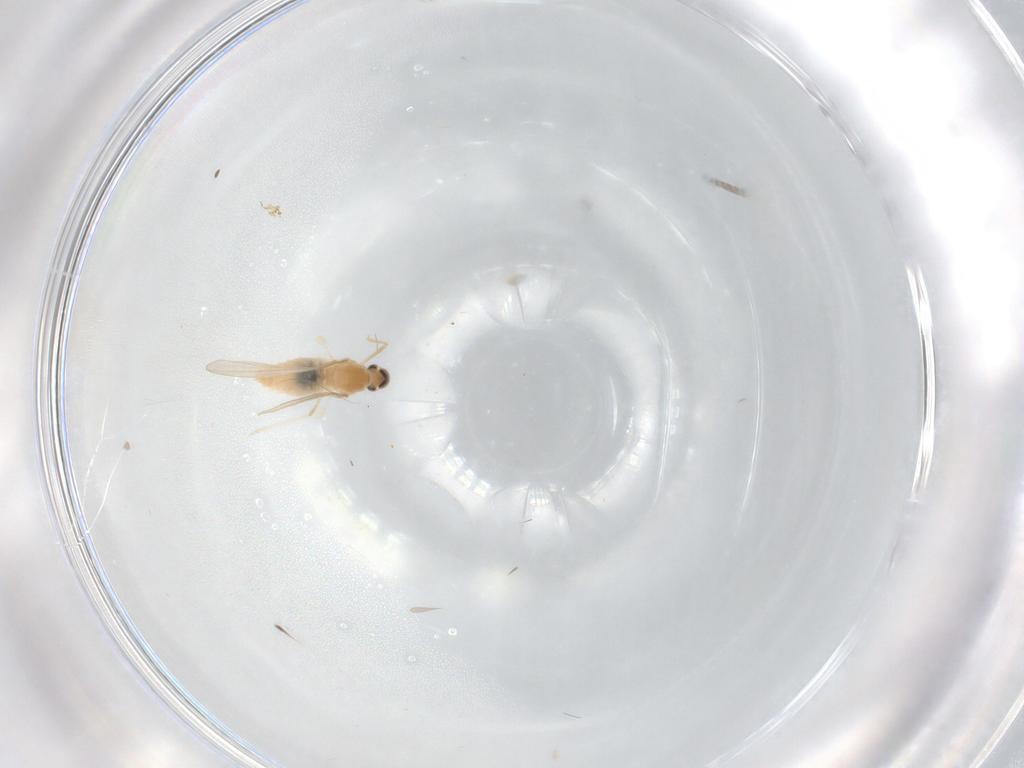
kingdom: Animalia
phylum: Arthropoda
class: Insecta
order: Diptera
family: Cecidomyiidae
